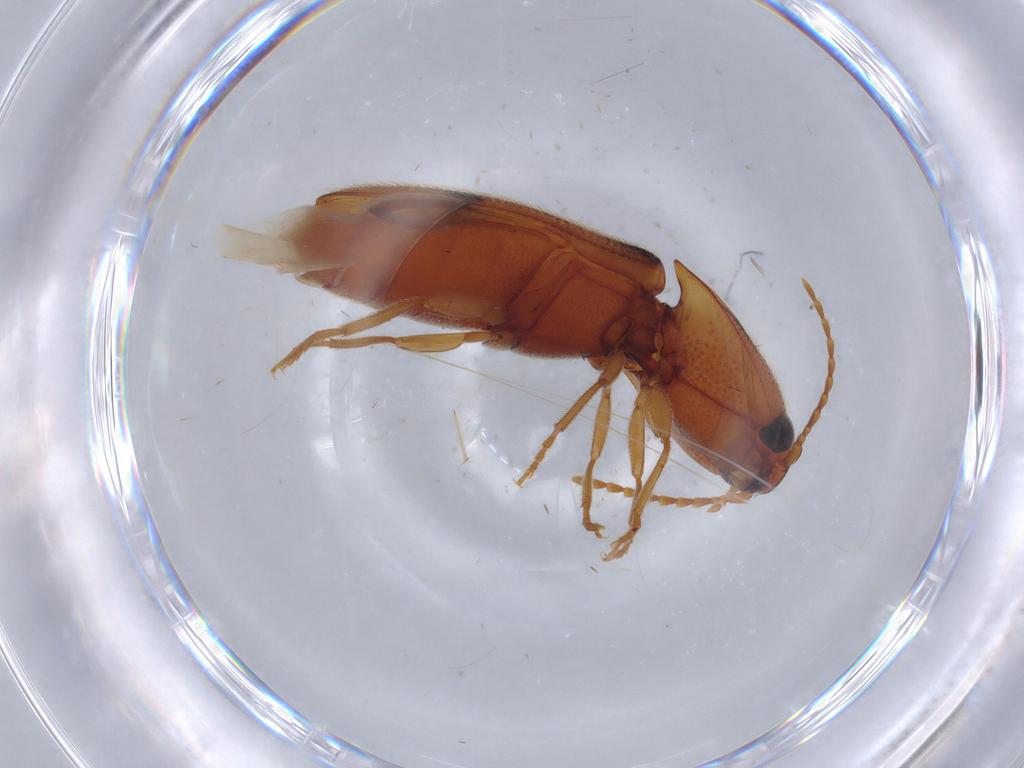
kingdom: Animalia
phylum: Arthropoda
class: Insecta
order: Coleoptera
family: Elateridae
